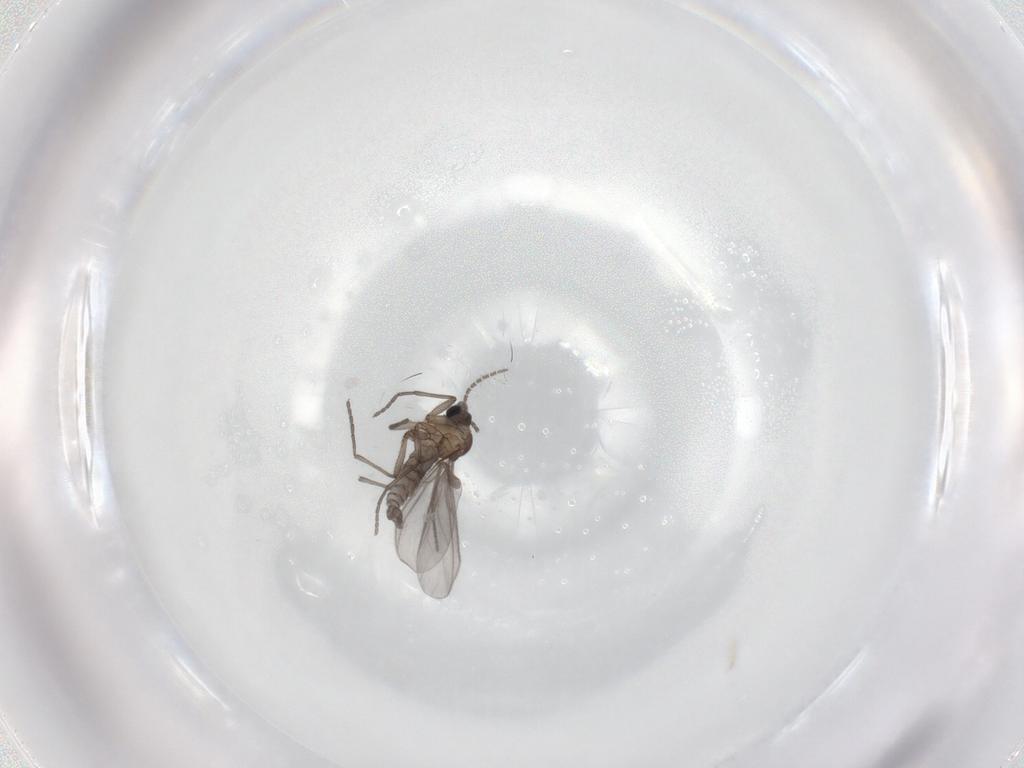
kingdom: Animalia
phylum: Arthropoda
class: Insecta
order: Diptera
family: Sciaridae
